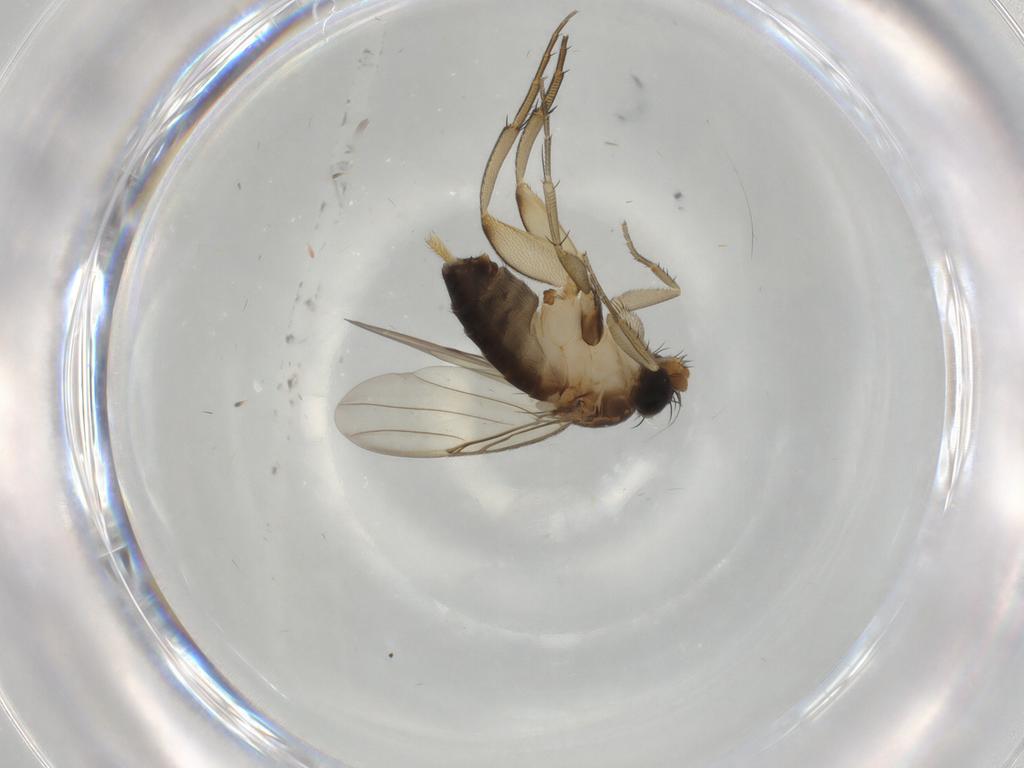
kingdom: Animalia
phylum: Arthropoda
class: Insecta
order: Diptera
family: Phoridae
